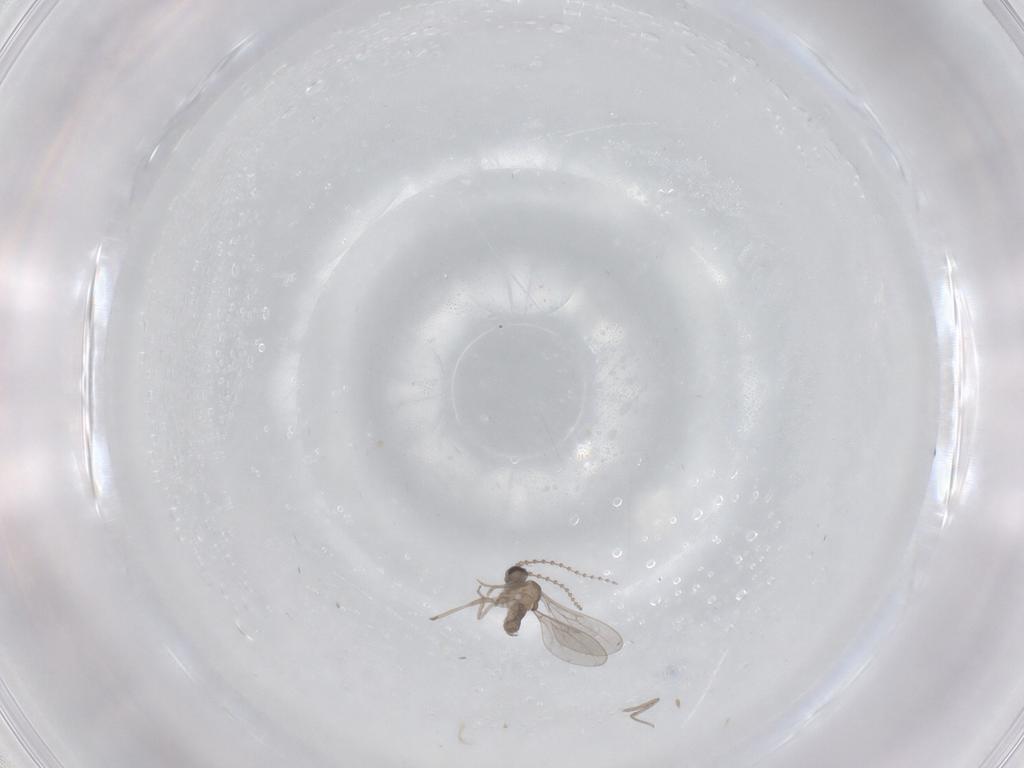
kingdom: Animalia
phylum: Arthropoda
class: Insecta
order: Diptera
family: Cecidomyiidae
